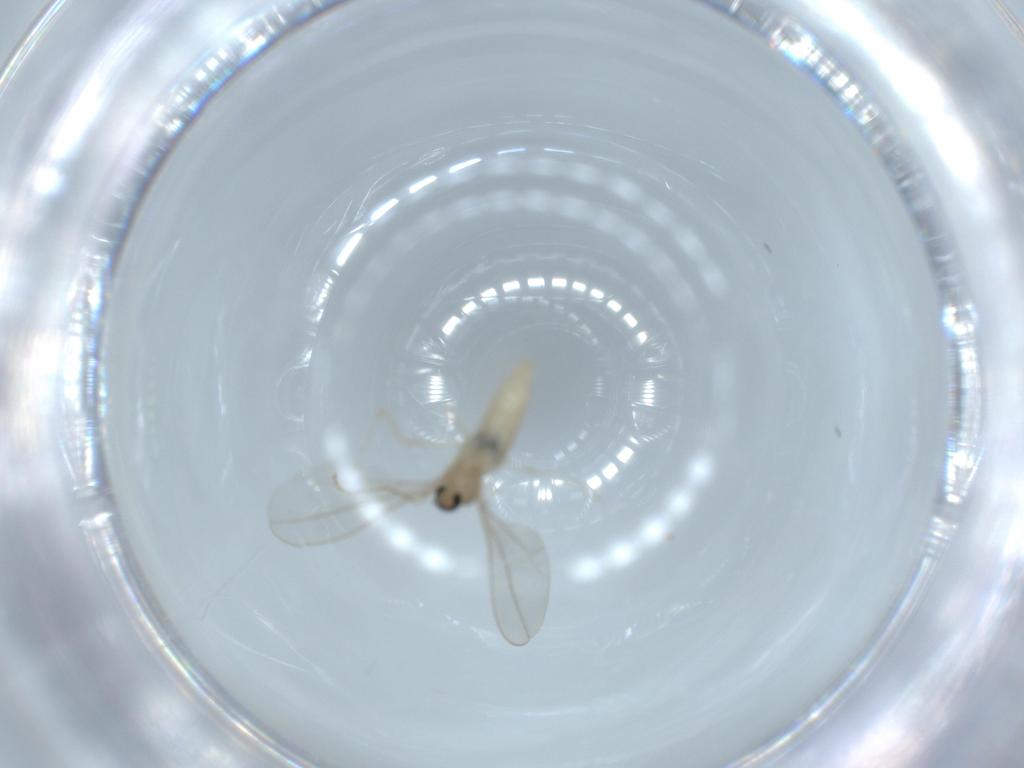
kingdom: Animalia
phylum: Arthropoda
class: Insecta
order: Diptera
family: Cecidomyiidae
